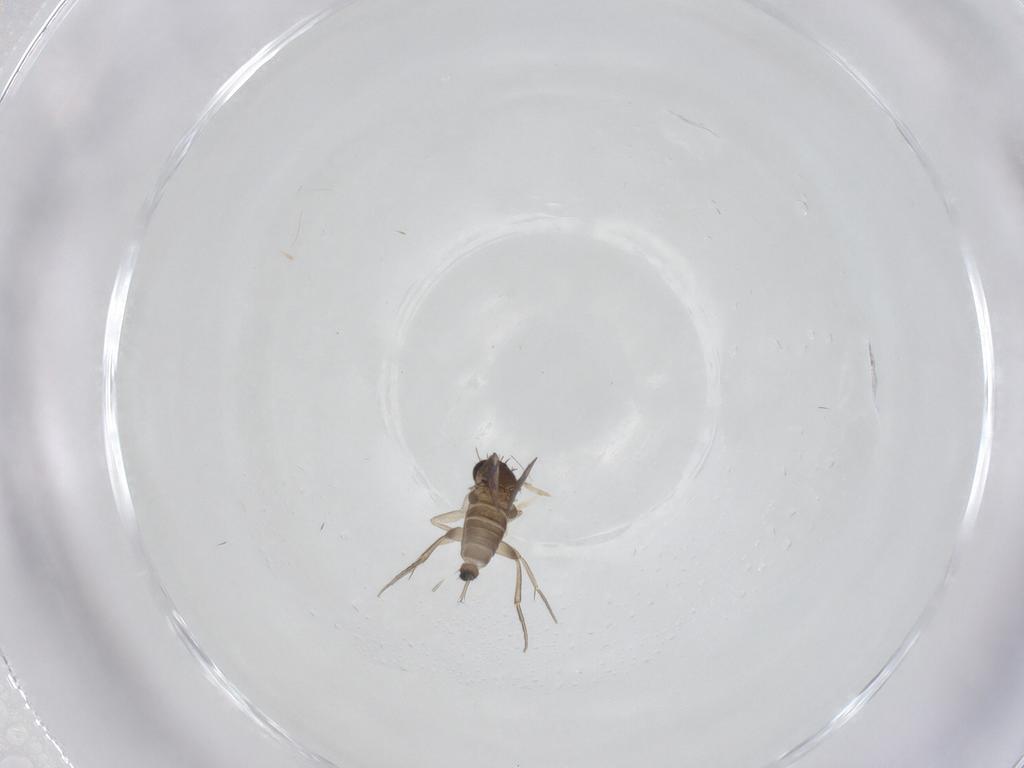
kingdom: Animalia
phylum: Arthropoda
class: Insecta
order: Diptera
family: Phoridae
